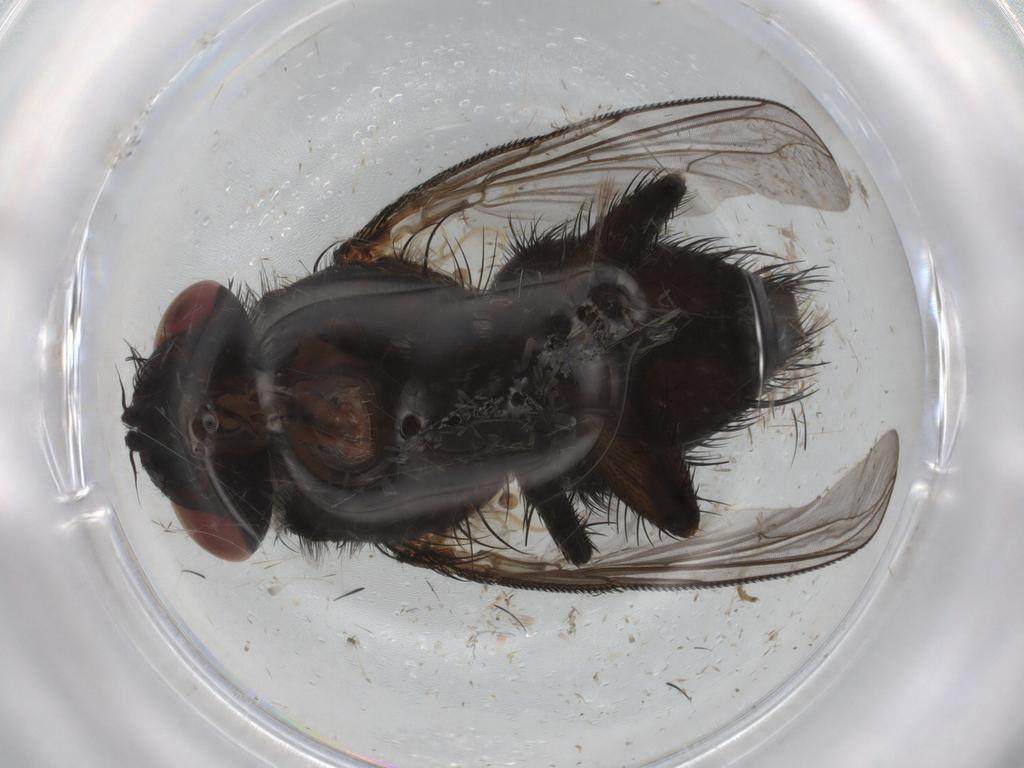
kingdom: Animalia
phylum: Arthropoda
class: Insecta
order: Diptera
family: Tachinidae
